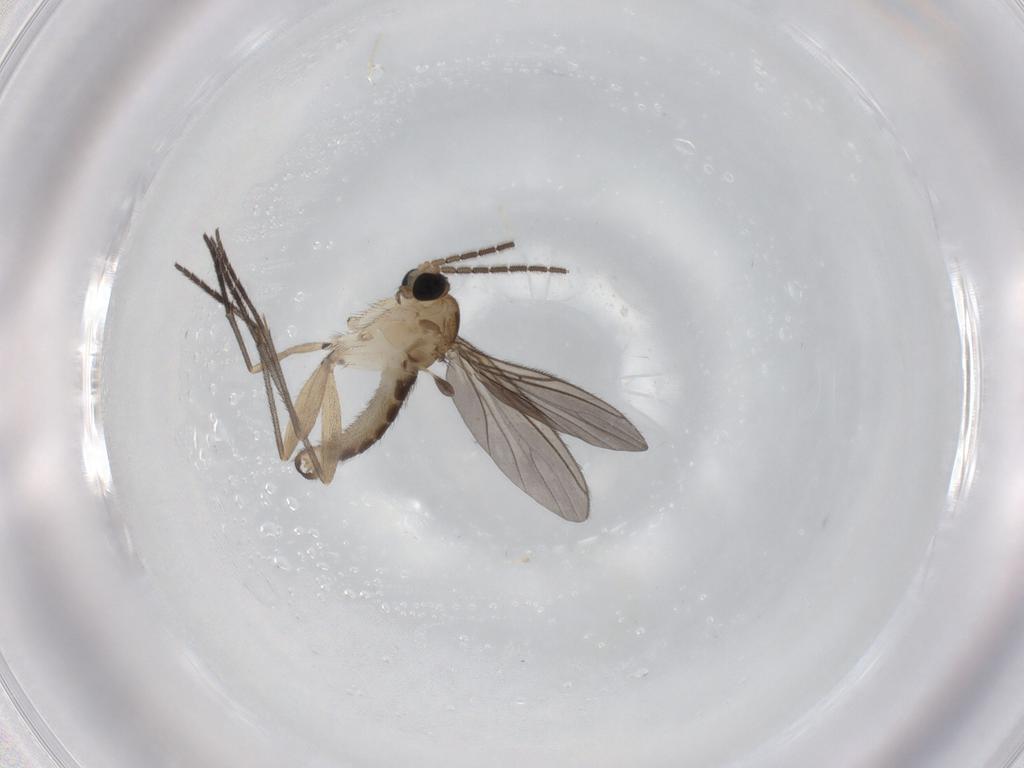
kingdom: Animalia
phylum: Arthropoda
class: Insecta
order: Diptera
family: Sciaridae
